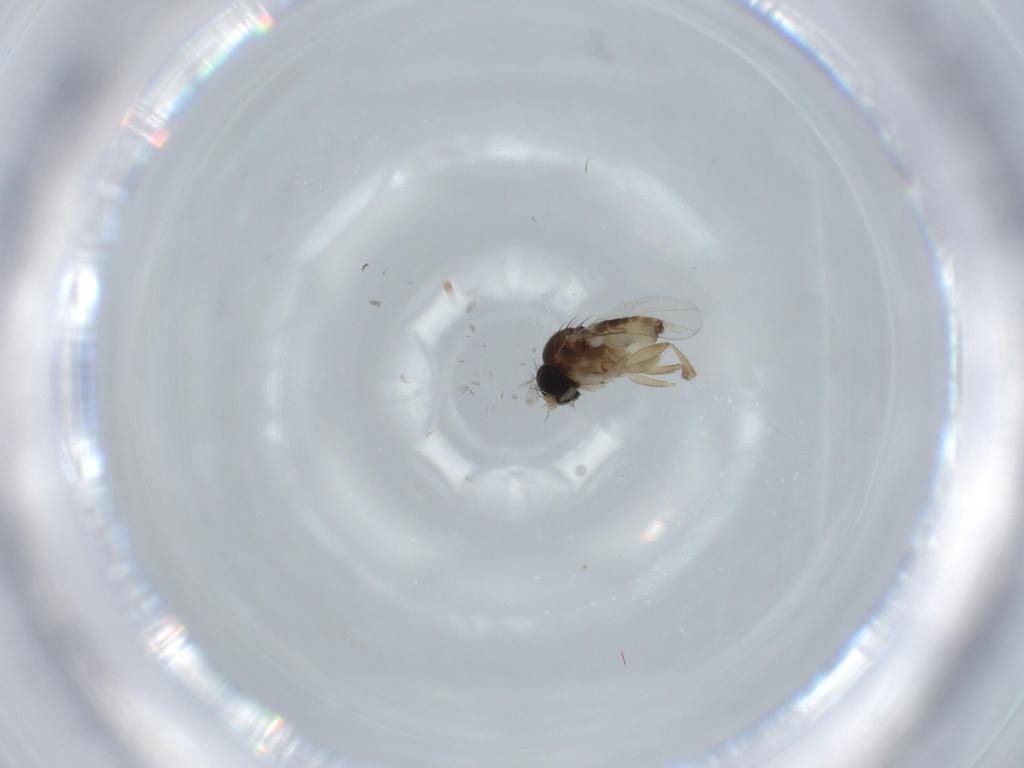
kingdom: Animalia
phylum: Arthropoda
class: Insecta
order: Diptera
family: Phoridae
